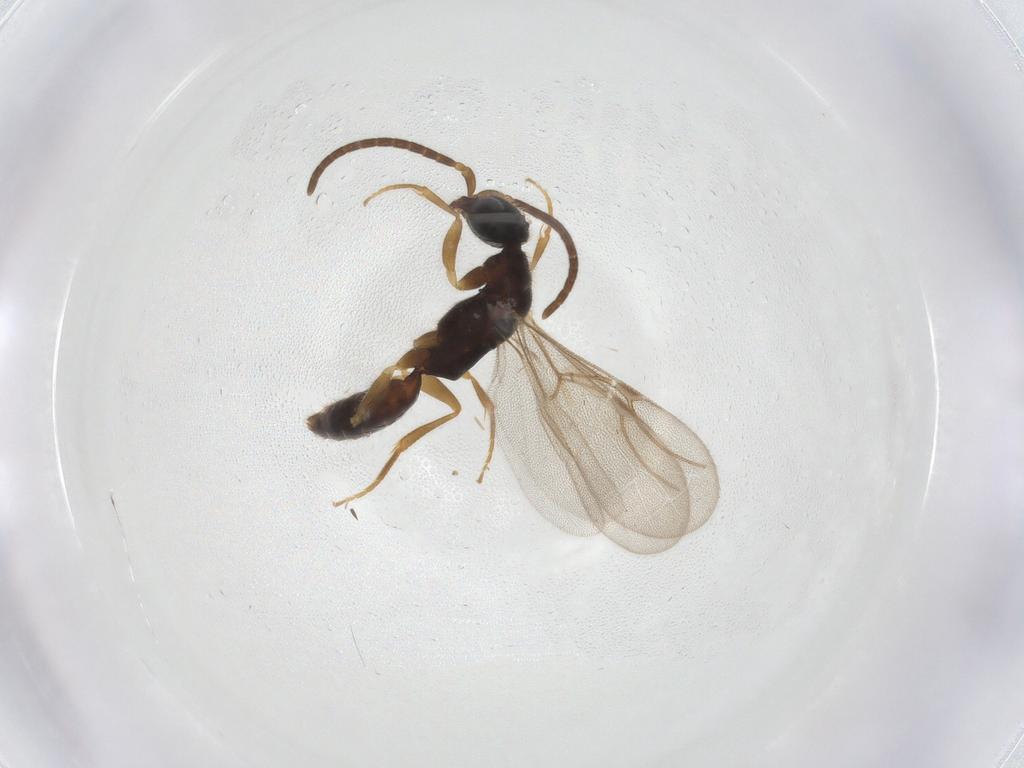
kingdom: Animalia
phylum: Arthropoda
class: Insecta
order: Hymenoptera
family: Bethylidae
